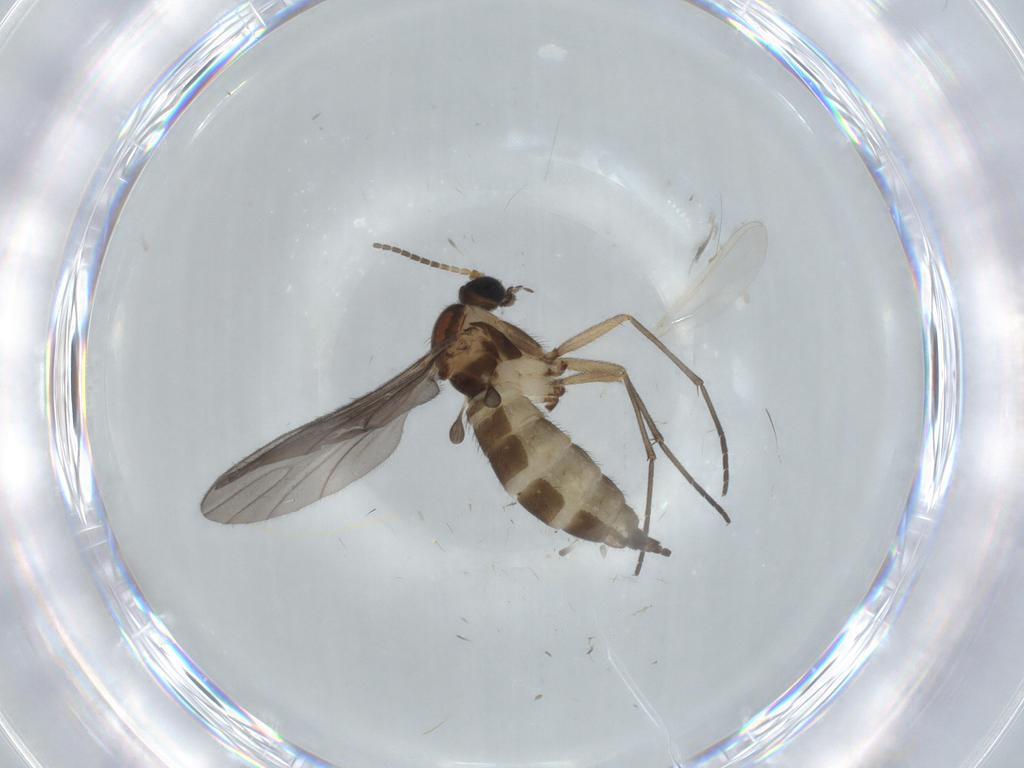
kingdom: Animalia
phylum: Arthropoda
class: Insecta
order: Diptera
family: Sciaridae
